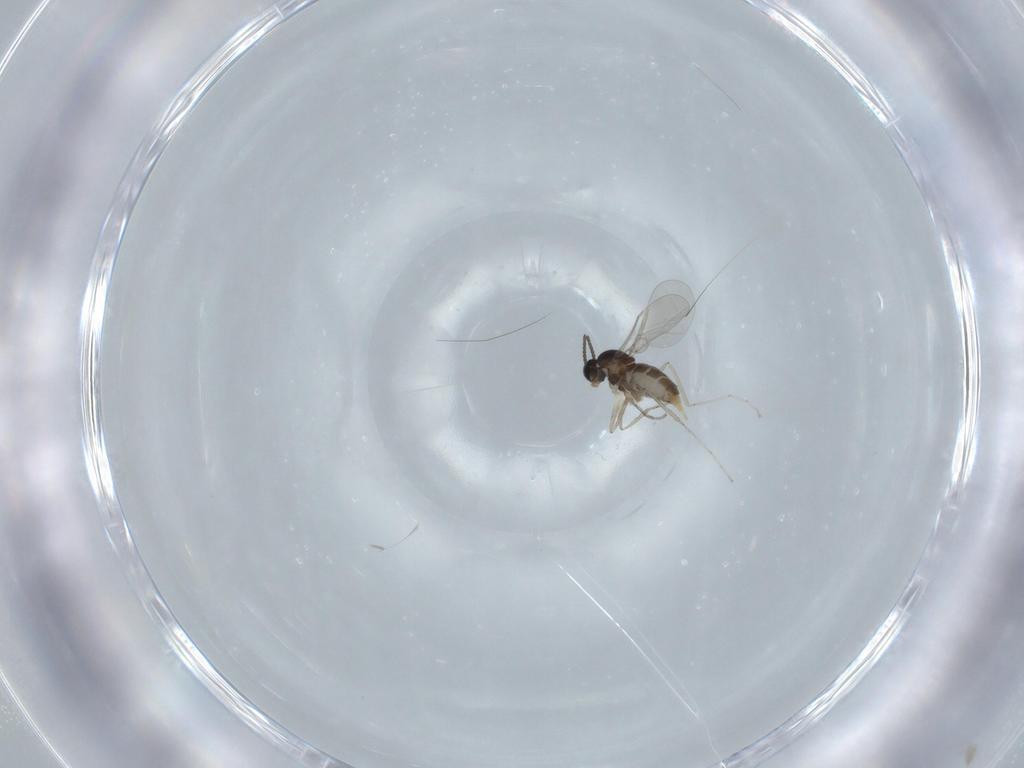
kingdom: Animalia
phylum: Arthropoda
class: Insecta
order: Diptera
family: Cecidomyiidae
